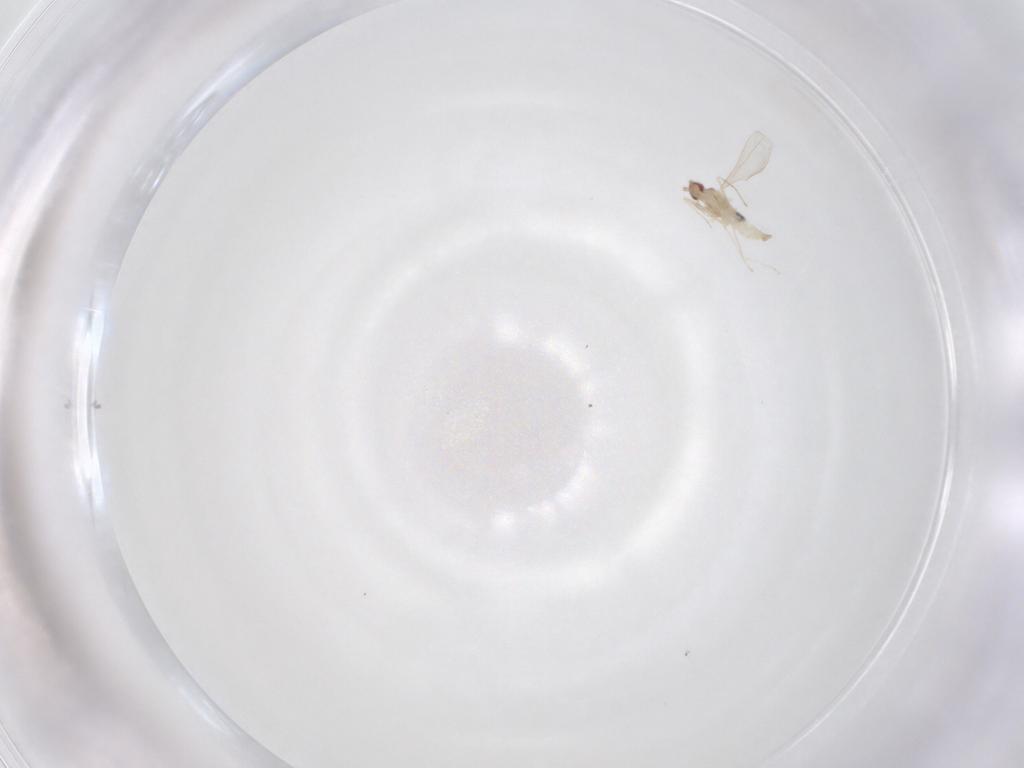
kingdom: Animalia
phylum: Arthropoda
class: Insecta
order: Diptera
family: Cecidomyiidae
